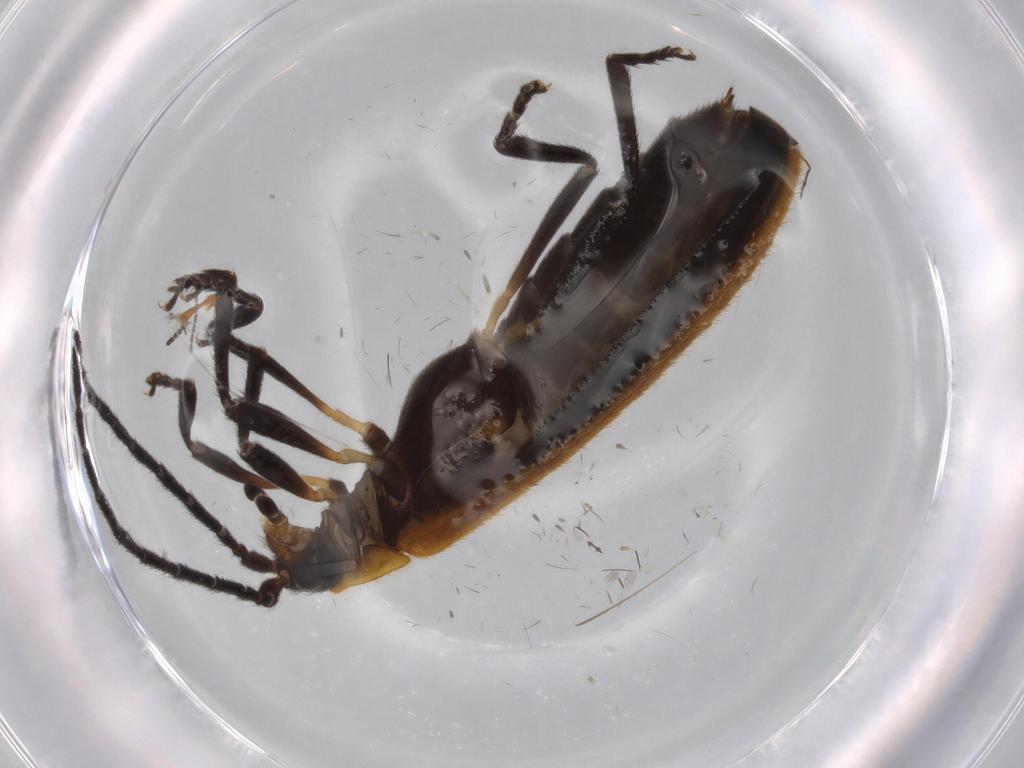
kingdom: Animalia
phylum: Arthropoda
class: Insecta
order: Coleoptera
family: Lycidae
